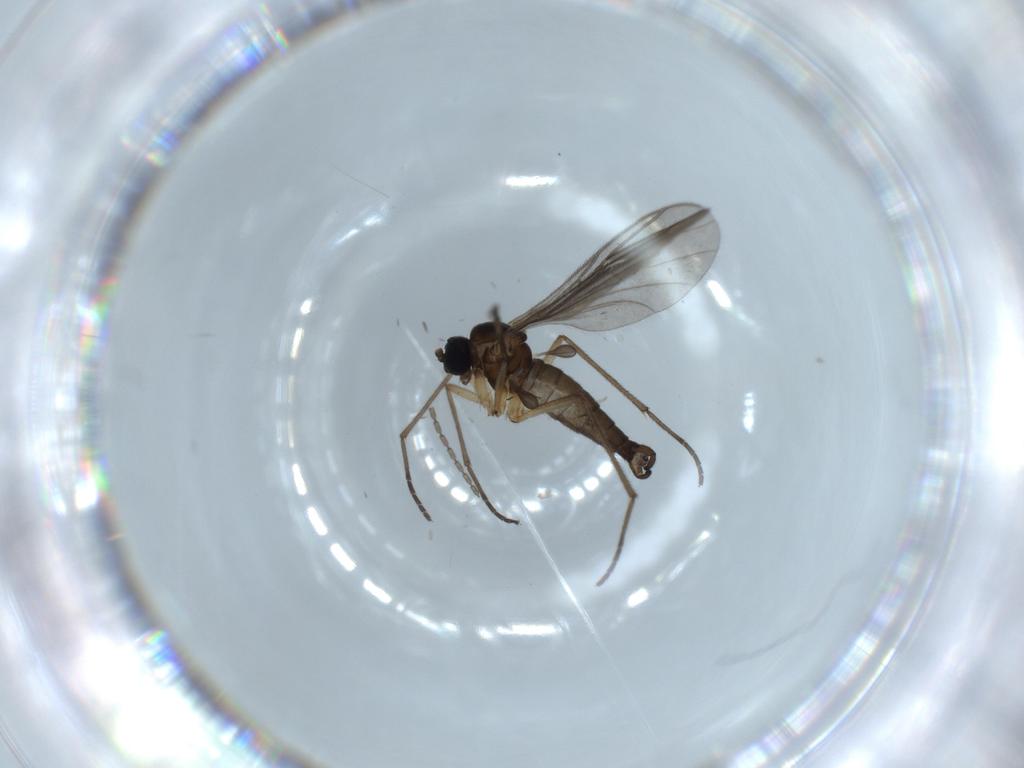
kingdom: Animalia
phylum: Arthropoda
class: Insecta
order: Diptera
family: Sciaridae
